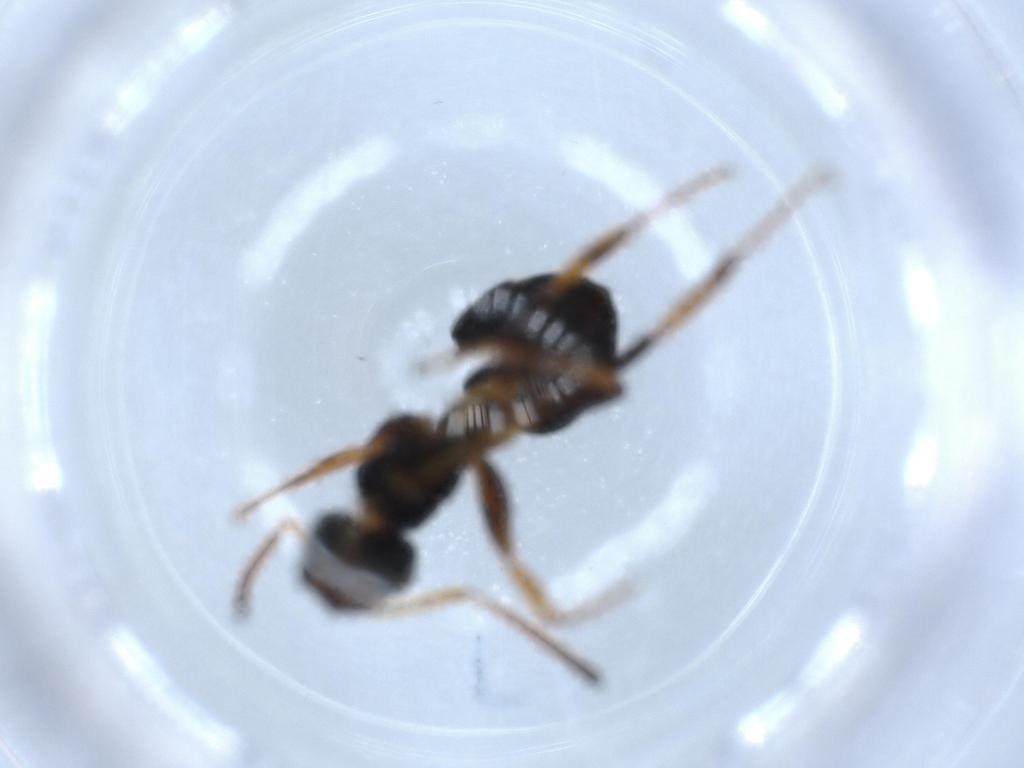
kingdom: Animalia
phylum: Arthropoda
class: Insecta
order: Hymenoptera
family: Formicidae
